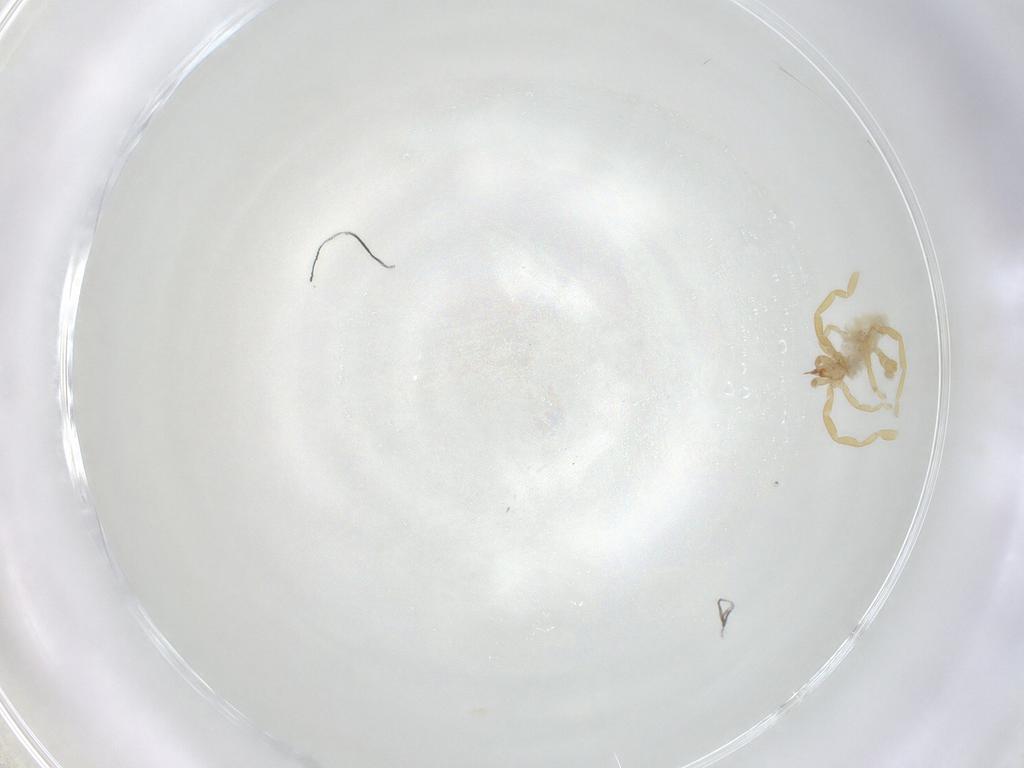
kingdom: Animalia
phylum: Arthropoda
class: Arachnida
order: Trombidiformes
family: Erythraeidae
